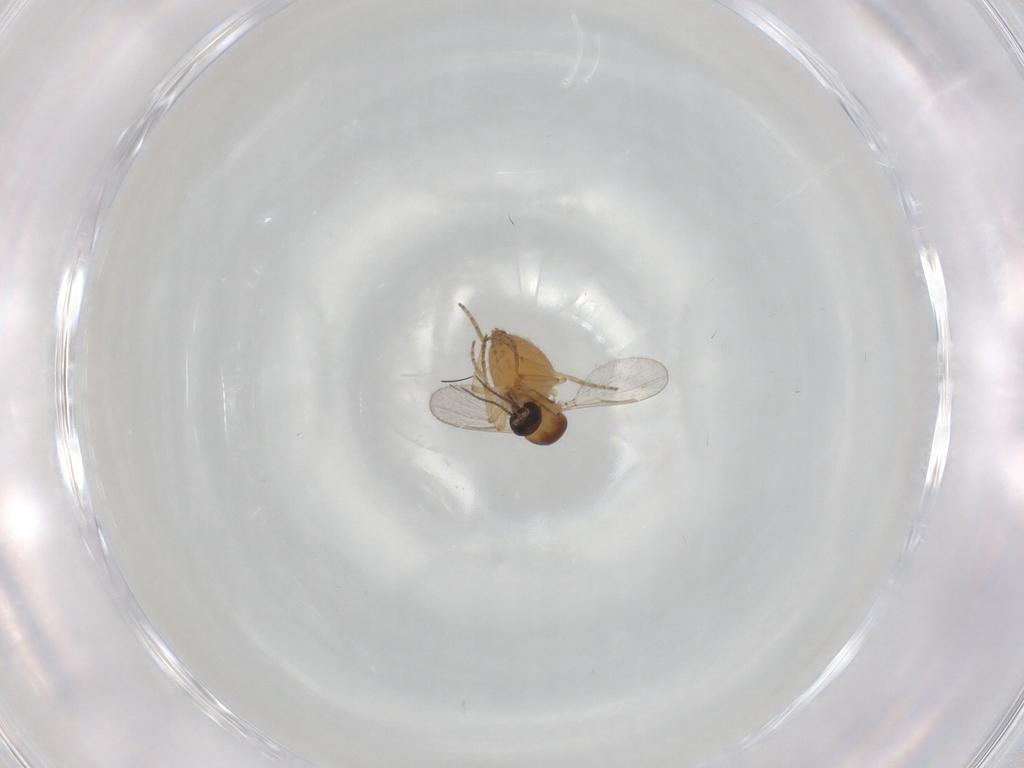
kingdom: Animalia
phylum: Arthropoda
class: Insecta
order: Diptera
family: Ceratopogonidae
